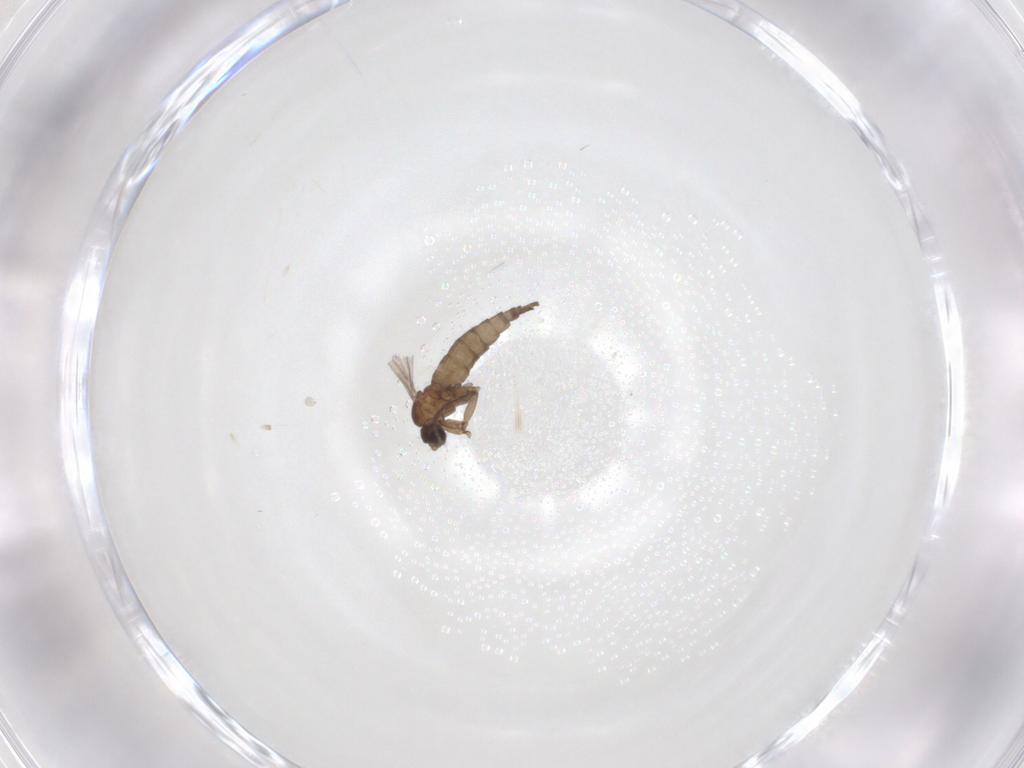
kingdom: Animalia
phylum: Arthropoda
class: Insecta
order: Diptera
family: Sciaridae
